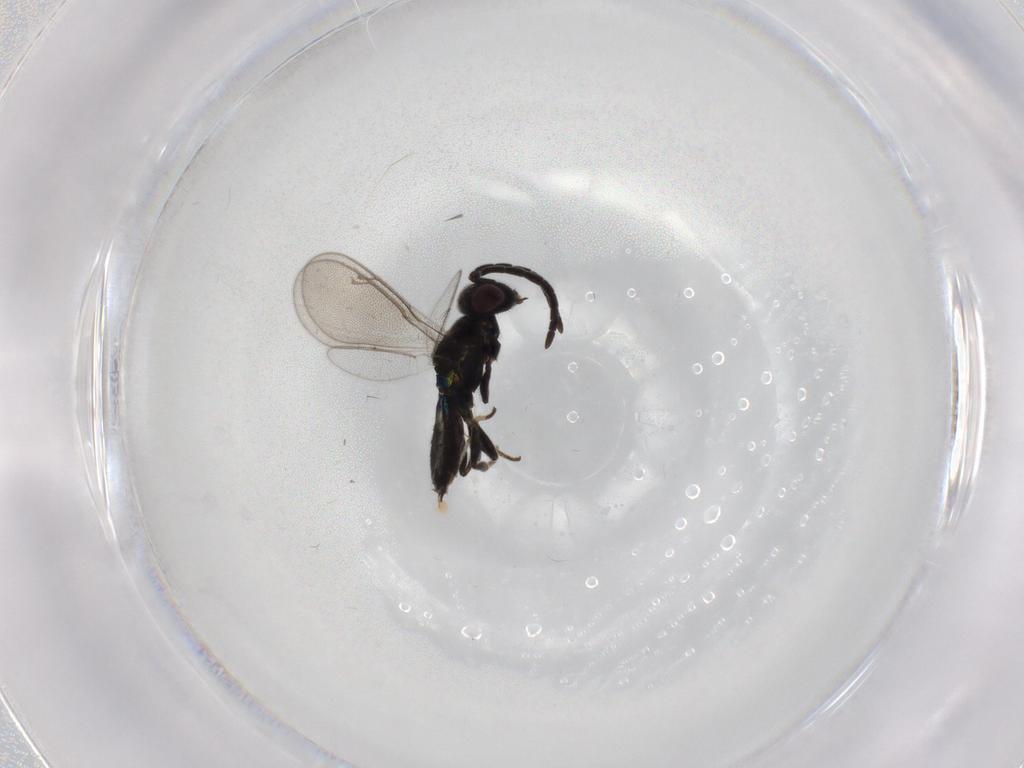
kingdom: Animalia
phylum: Arthropoda
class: Insecta
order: Hymenoptera
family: Eupelmidae
